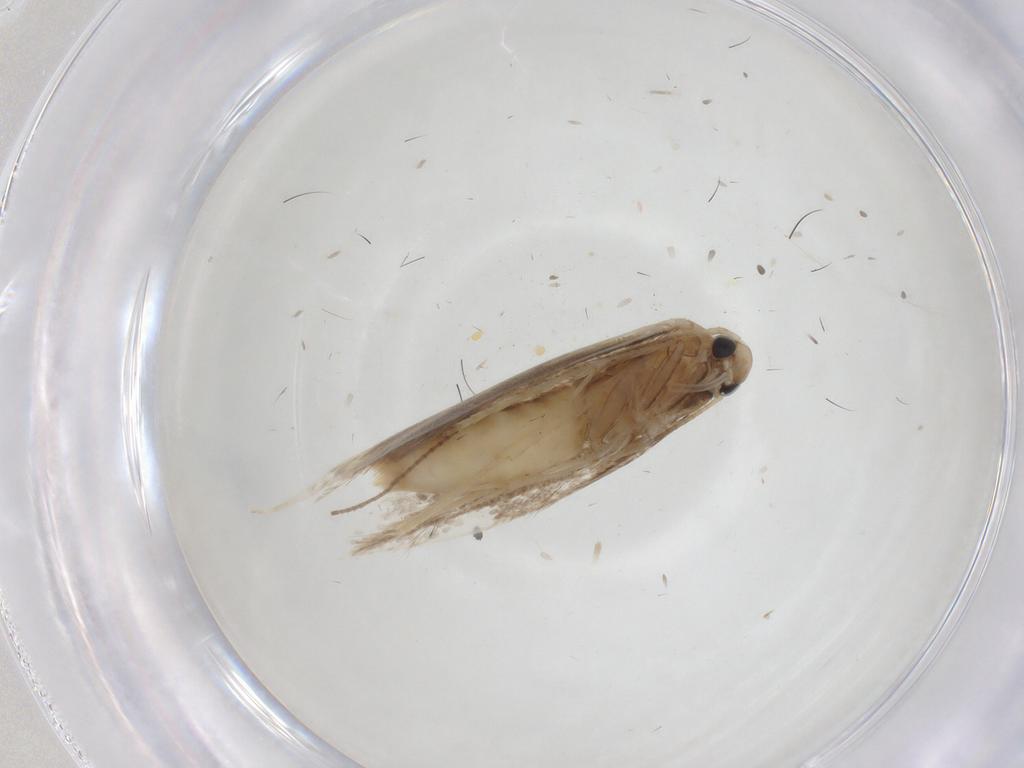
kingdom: Animalia
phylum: Arthropoda
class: Insecta
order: Lepidoptera
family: Gracillariidae
